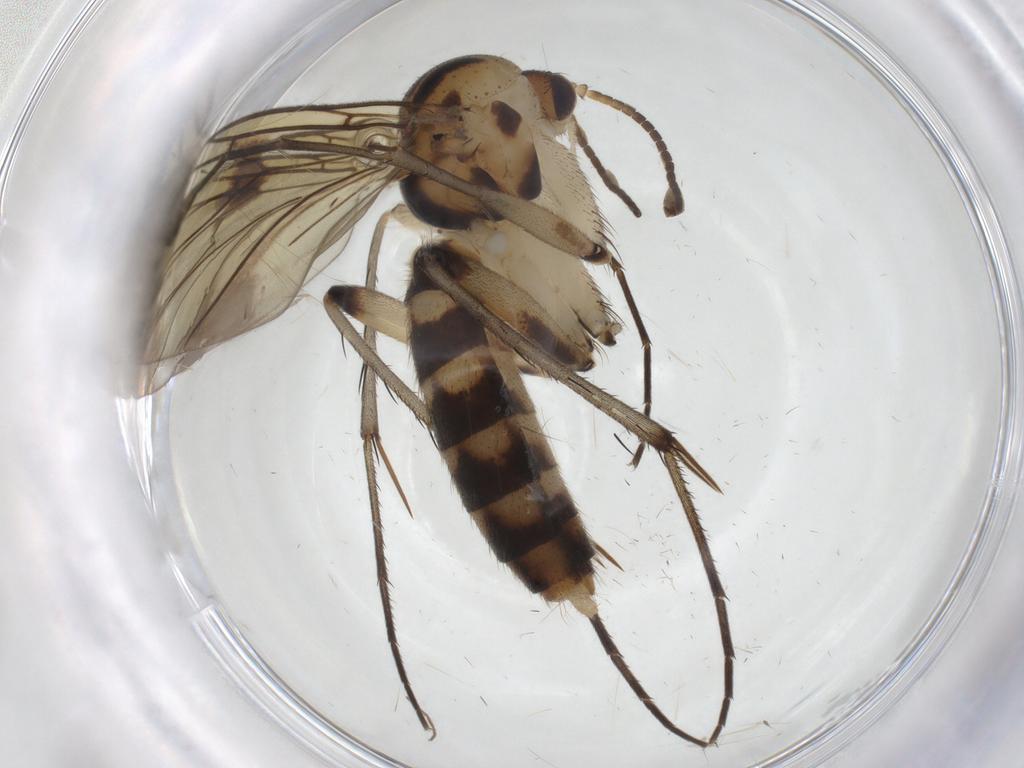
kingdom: Animalia
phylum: Arthropoda
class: Insecta
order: Diptera
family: Mycetophilidae
